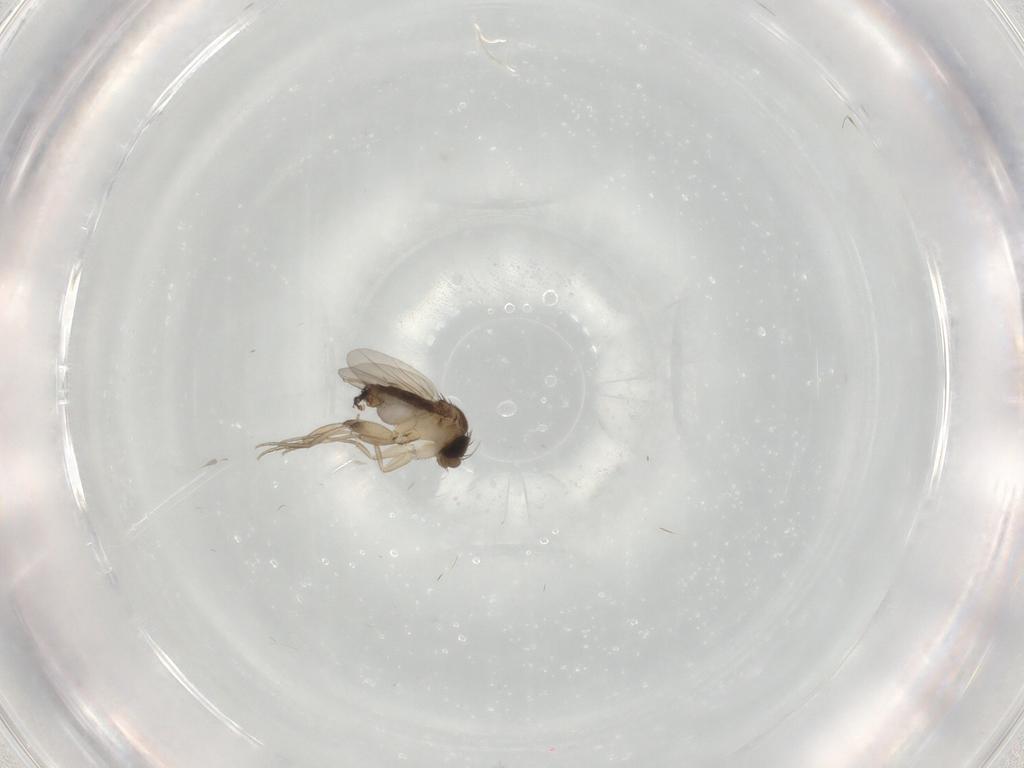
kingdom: Animalia
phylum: Arthropoda
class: Insecta
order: Diptera
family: Phoridae
